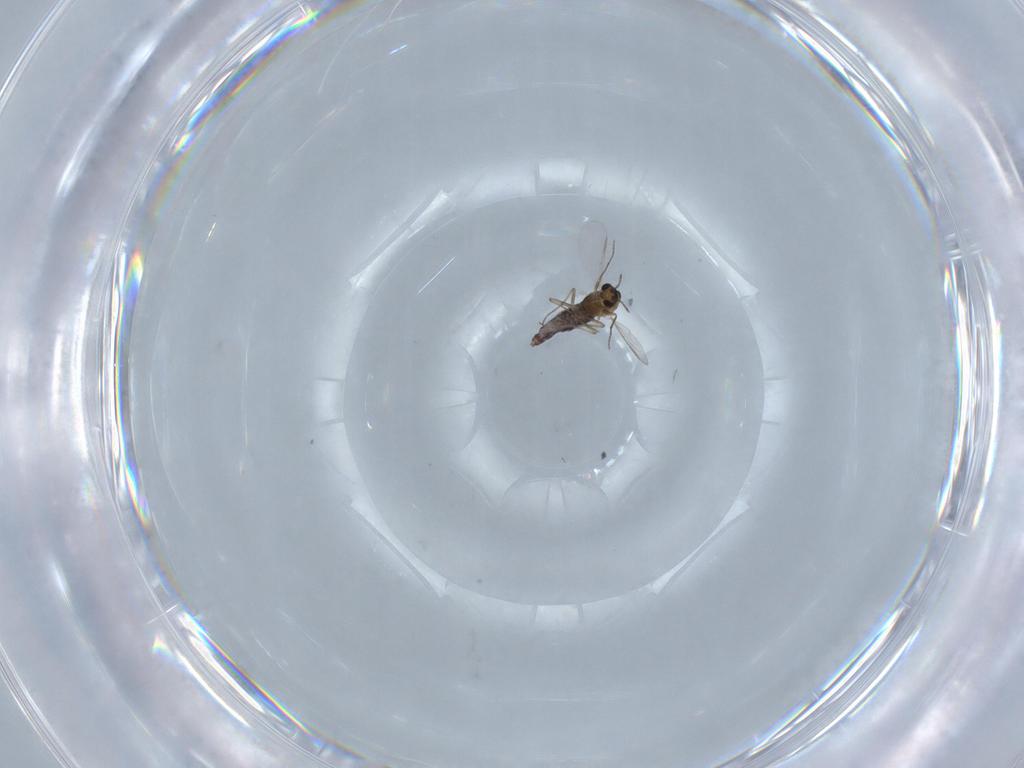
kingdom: Animalia
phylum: Arthropoda
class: Insecta
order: Diptera
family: Chironomidae
